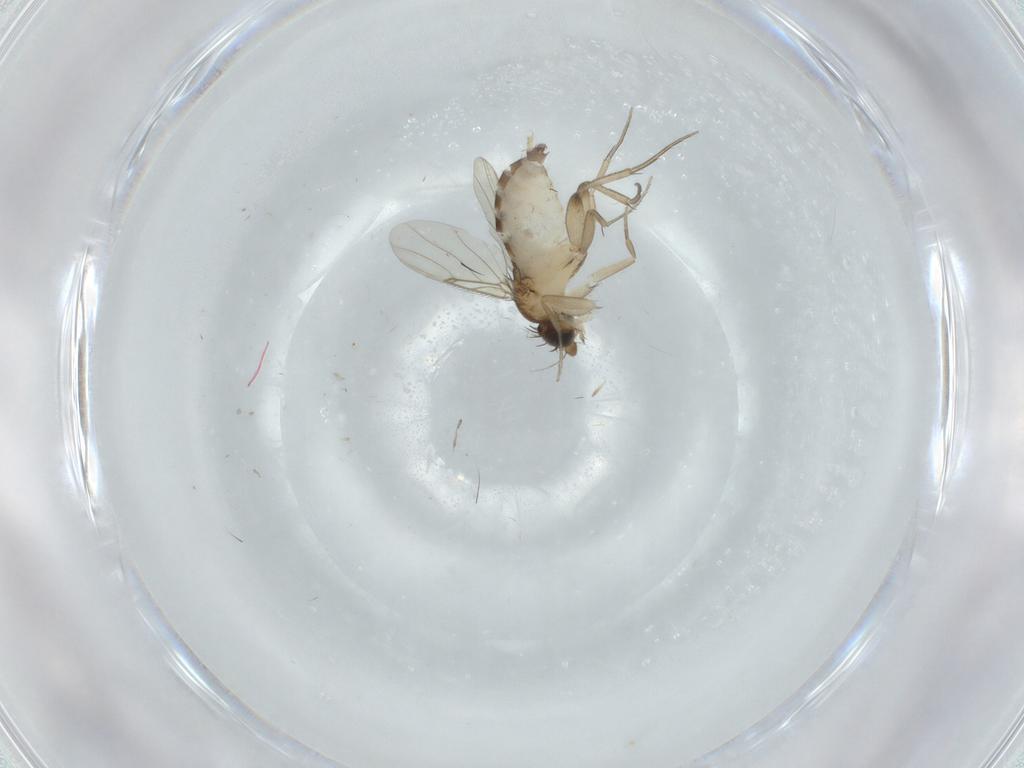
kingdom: Animalia
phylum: Arthropoda
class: Insecta
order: Diptera
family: Phoridae
